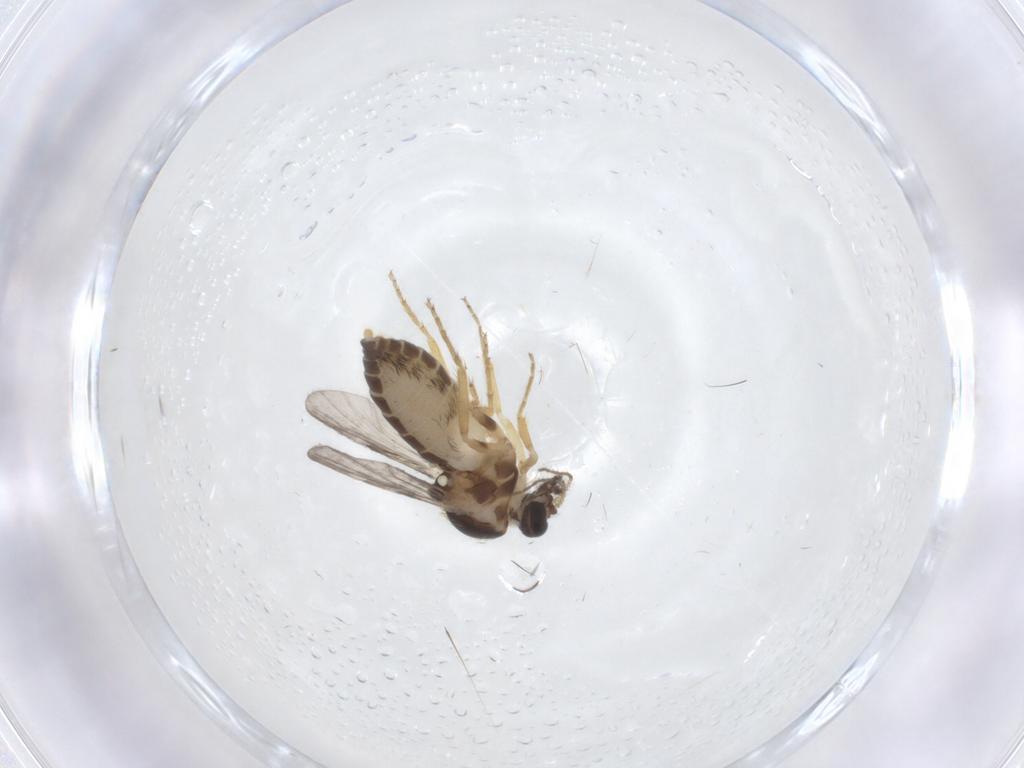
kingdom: Animalia
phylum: Arthropoda
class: Insecta
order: Diptera
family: Ceratopogonidae
